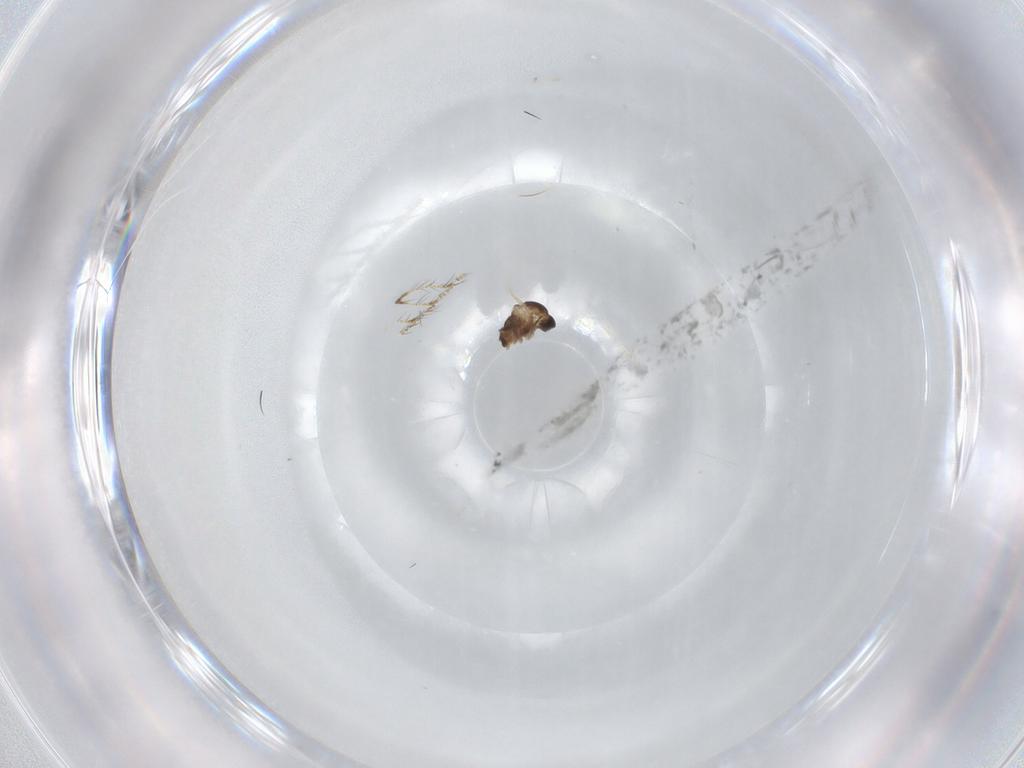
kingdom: Animalia
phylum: Arthropoda
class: Insecta
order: Diptera
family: Cecidomyiidae
